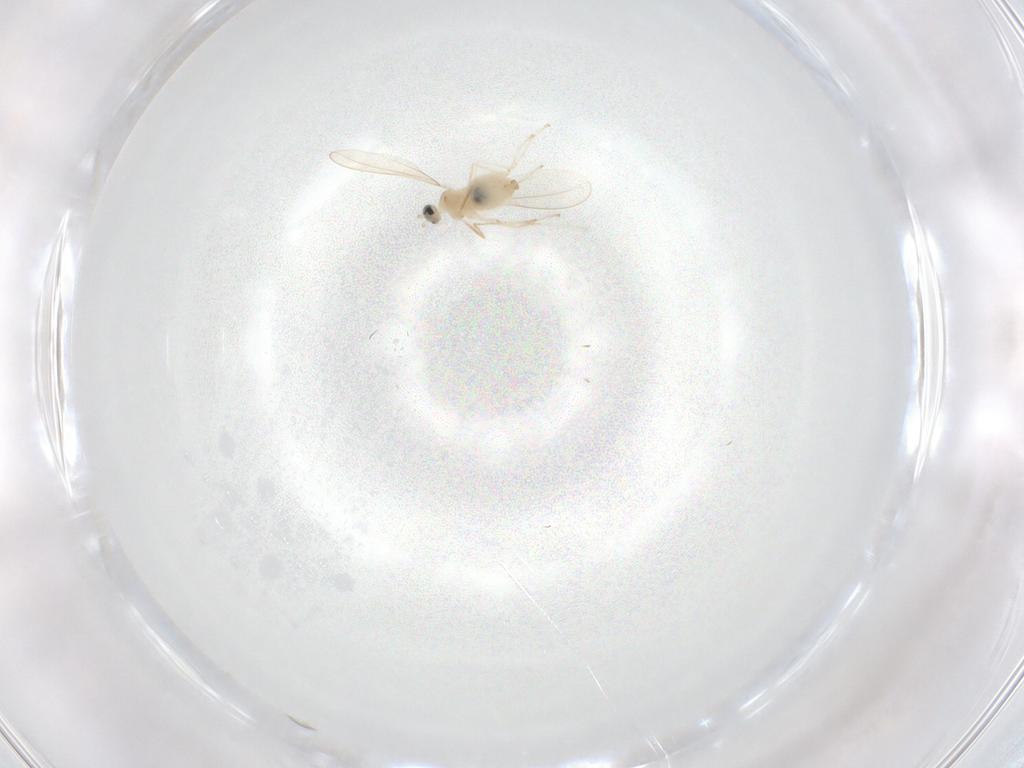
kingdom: Animalia
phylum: Arthropoda
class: Insecta
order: Diptera
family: Cecidomyiidae
